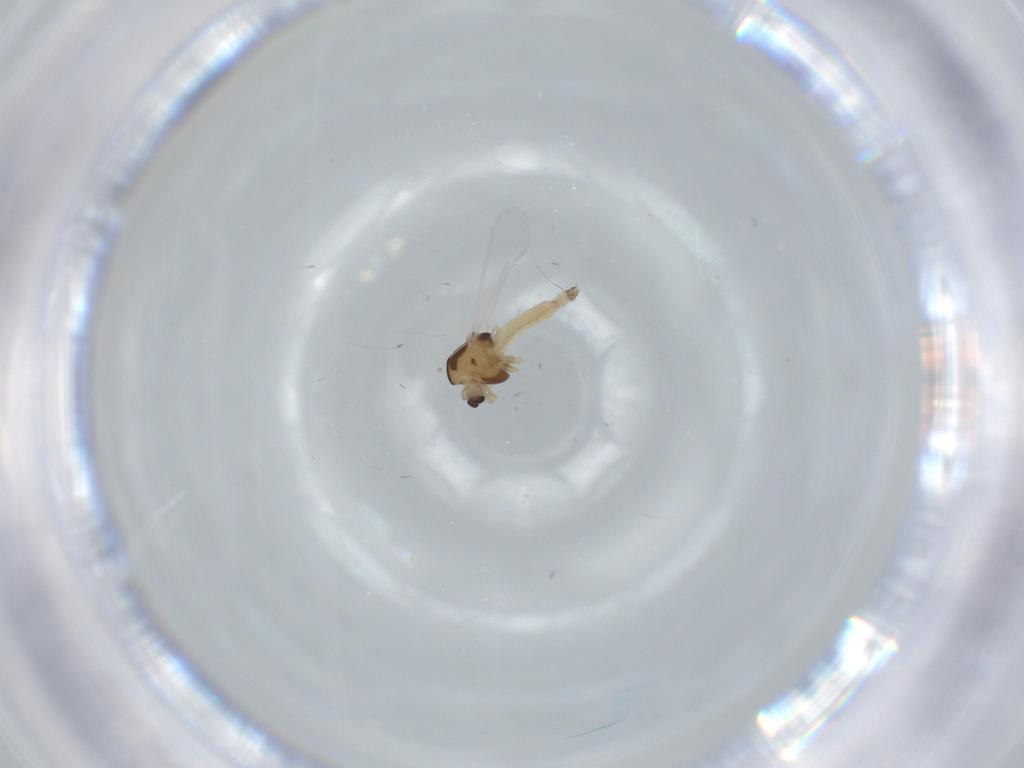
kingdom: Animalia
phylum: Arthropoda
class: Insecta
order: Diptera
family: Chironomidae
